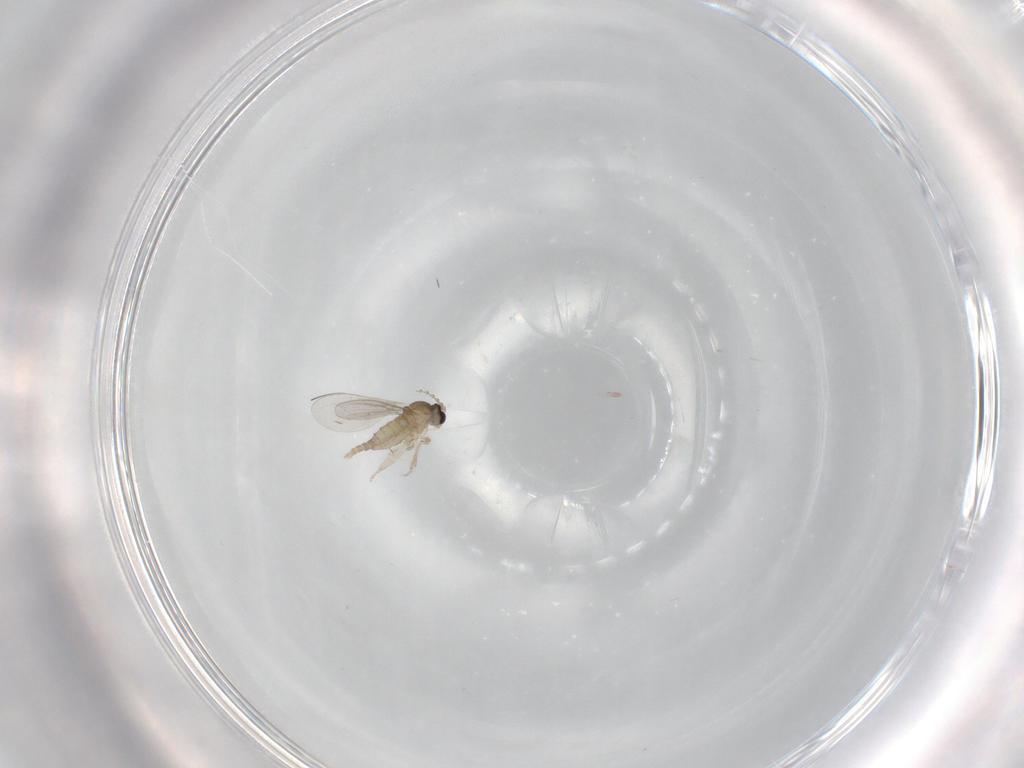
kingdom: Animalia
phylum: Arthropoda
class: Insecta
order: Diptera
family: Cecidomyiidae
